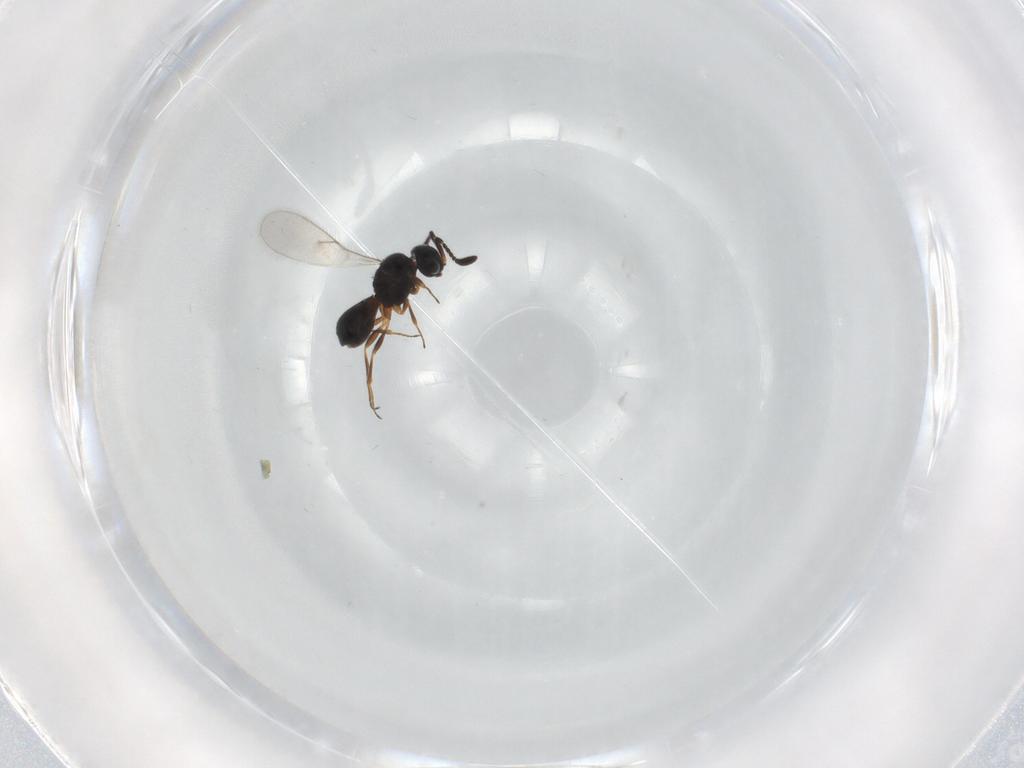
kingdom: Animalia
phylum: Arthropoda
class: Insecta
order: Hymenoptera
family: Scelionidae
